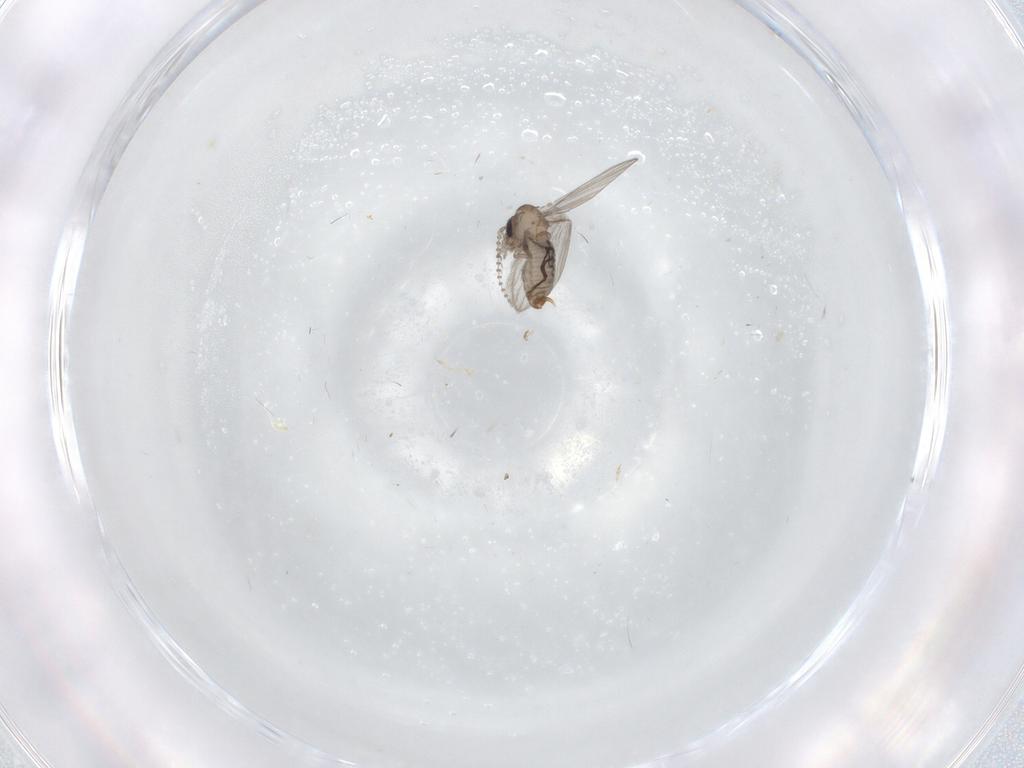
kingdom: Animalia
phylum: Arthropoda
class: Insecta
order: Diptera
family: Psychodidae
